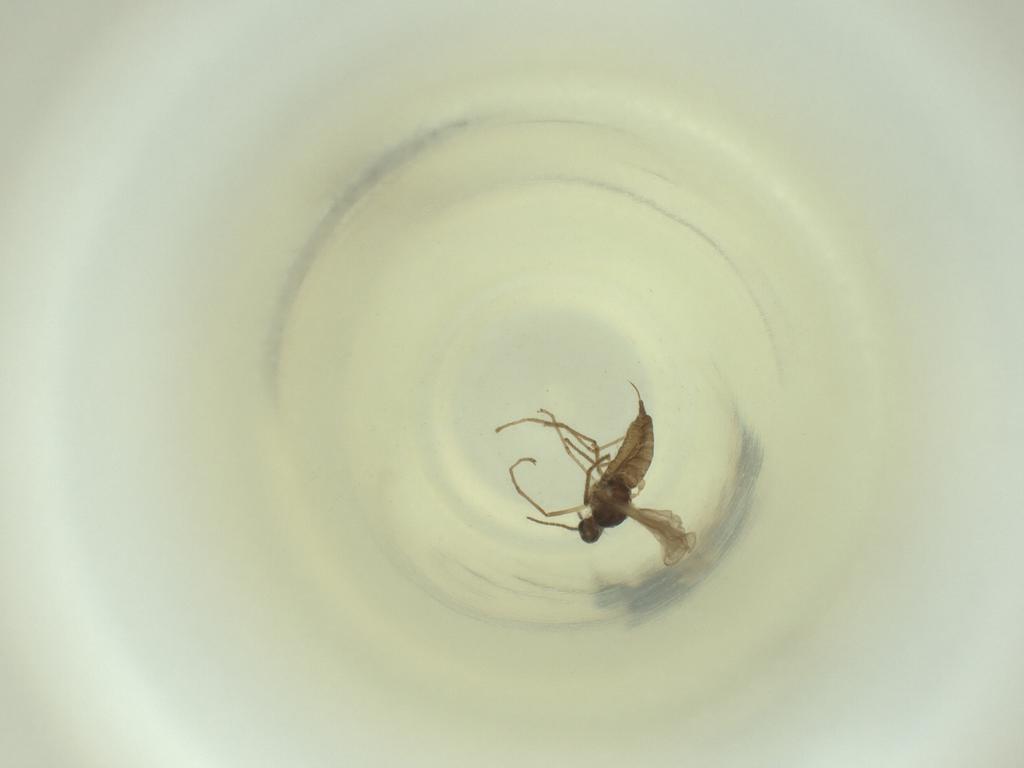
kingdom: Animalia
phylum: Arthropoda
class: Insecta
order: Diptera
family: Cecidomyiidae
